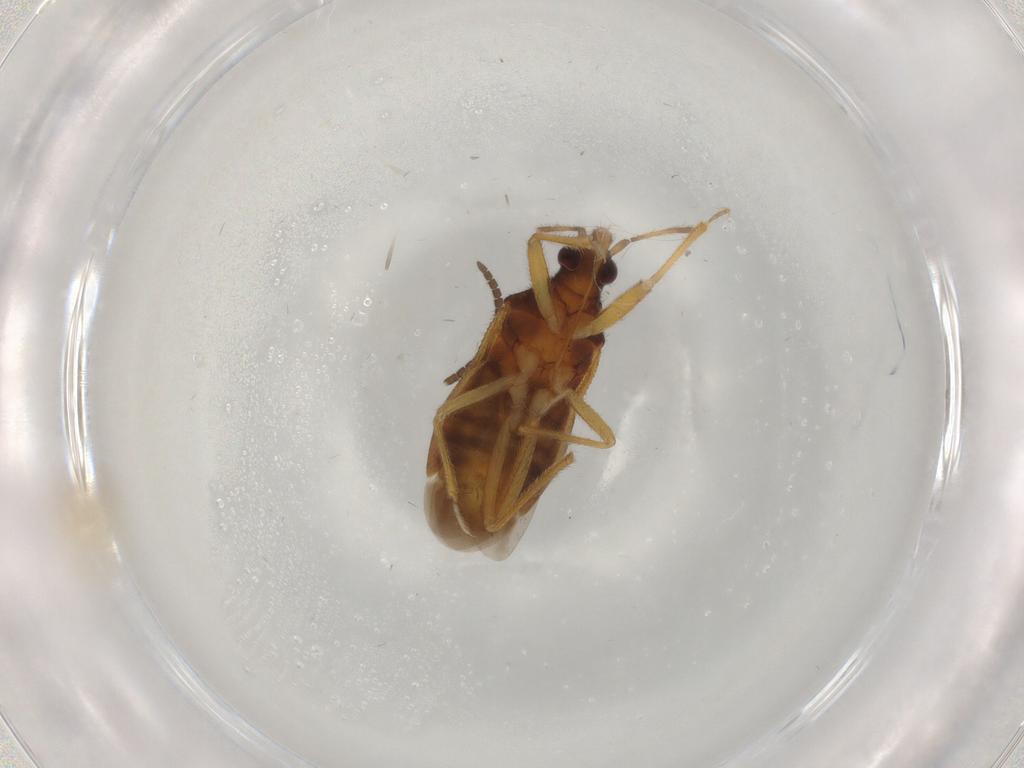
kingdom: Animalia
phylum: Arthropoda
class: Insecta
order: Hemiptera
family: Anthocoridae
